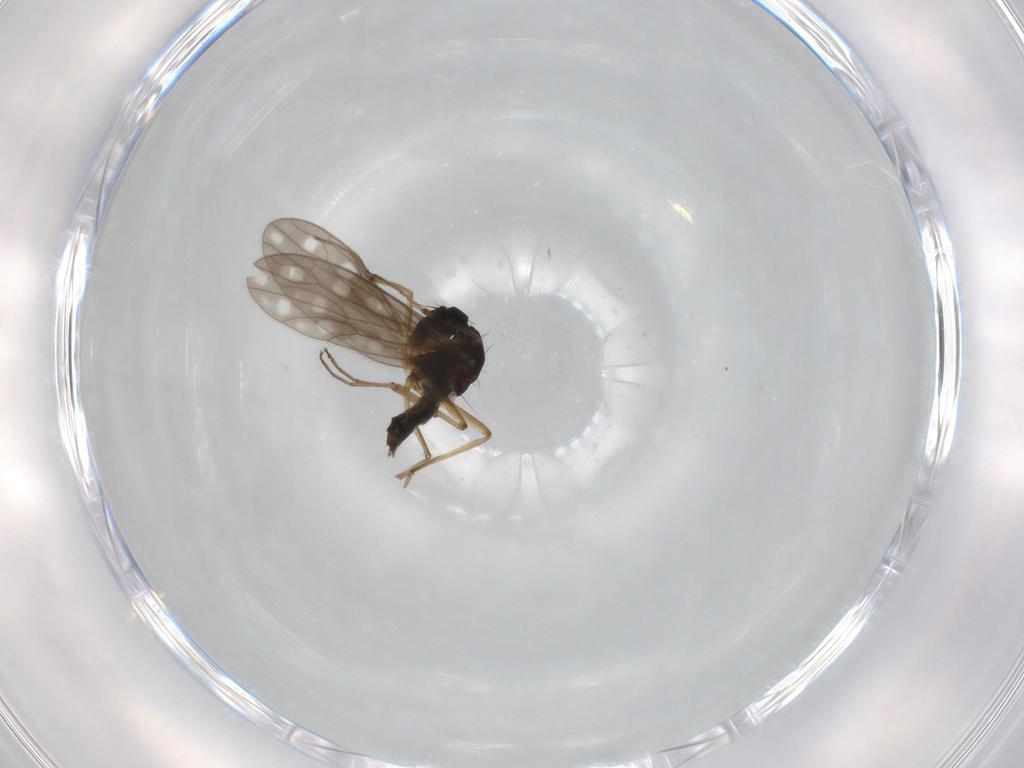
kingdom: Animalia
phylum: Arthropoda
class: Insecta
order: Diptera
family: Empididae
